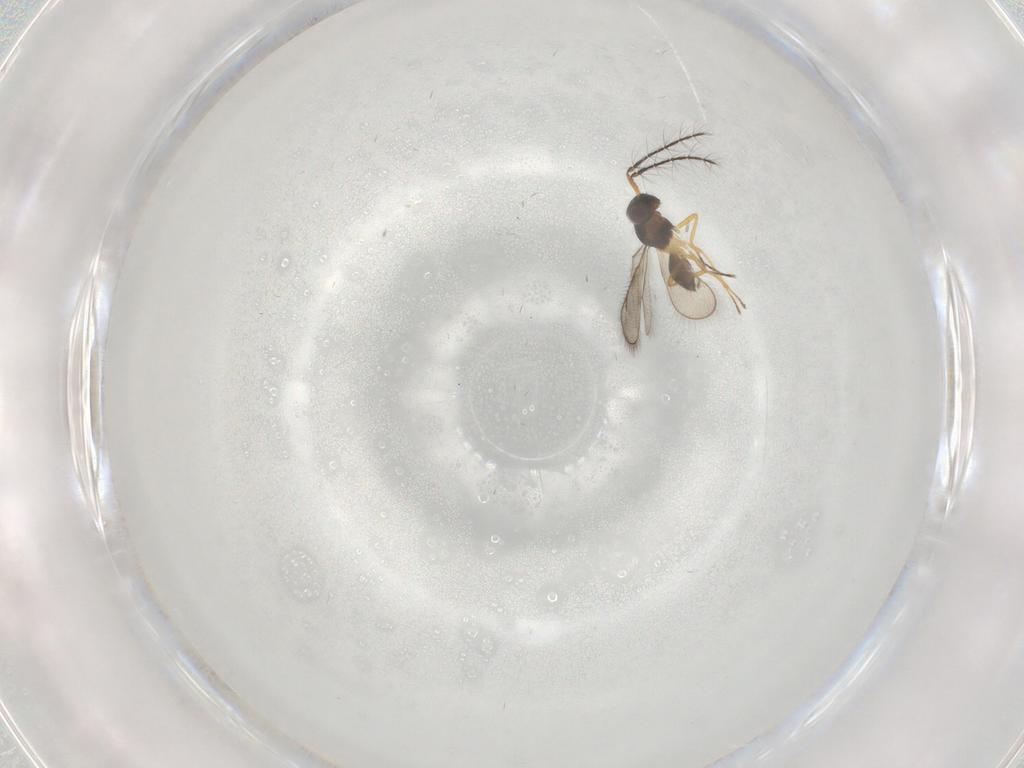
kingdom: Animalia
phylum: Arthropoda
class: Insecta
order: Hymenoptera
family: Eulophidae
